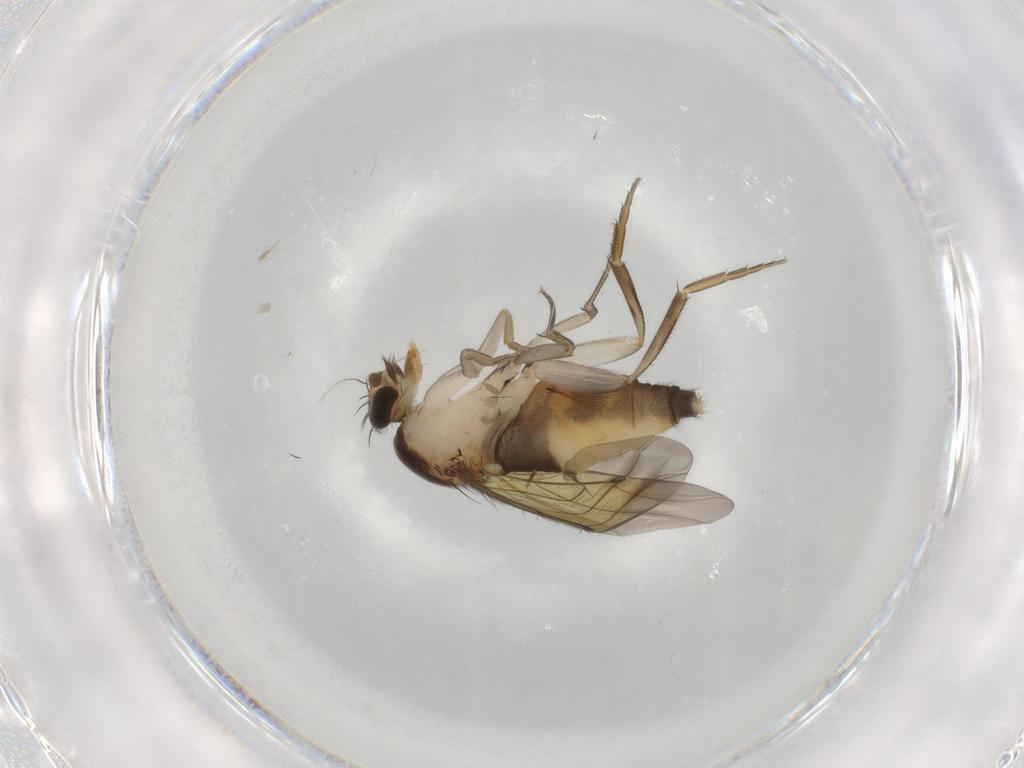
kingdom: Animalia
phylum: Arthropoda
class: Insecta
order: Diptera
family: Phoridae
